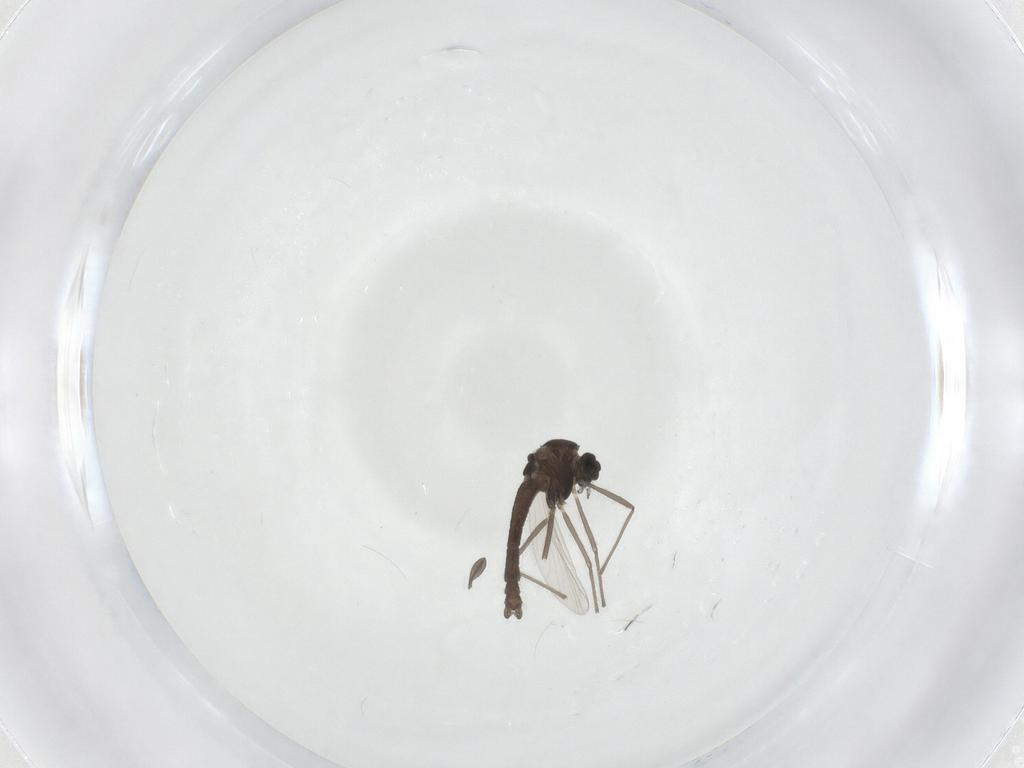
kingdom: Animalia
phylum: Arthropoda
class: Insecta
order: Diptera
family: Chironomidae
